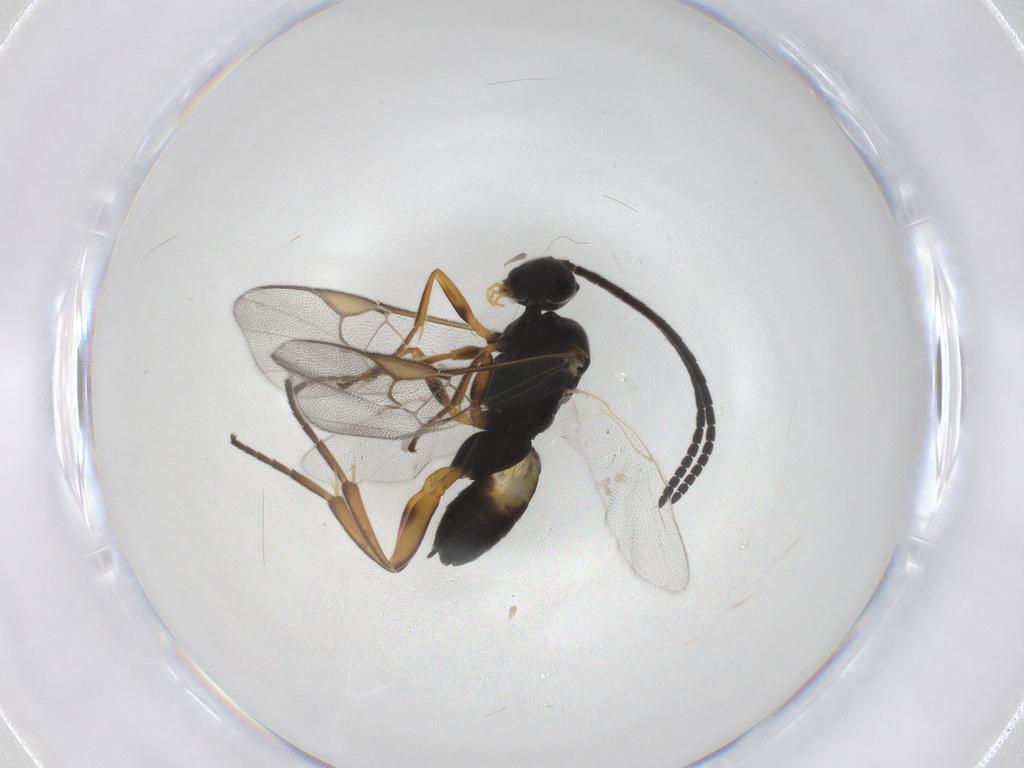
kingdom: Animalia
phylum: Arthropoda
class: Insecta
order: Hymenoptera
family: Braconidae
